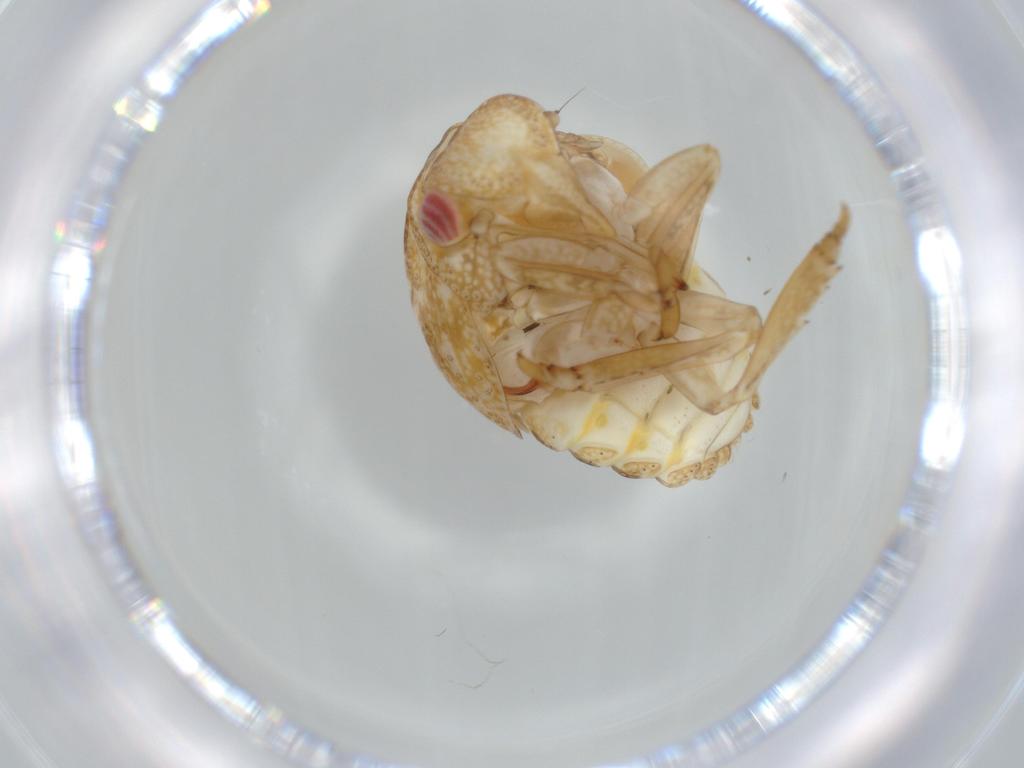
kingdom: Animalia
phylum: Arthropoda
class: Insecta
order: Hemiptera
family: Acanaloniidae
